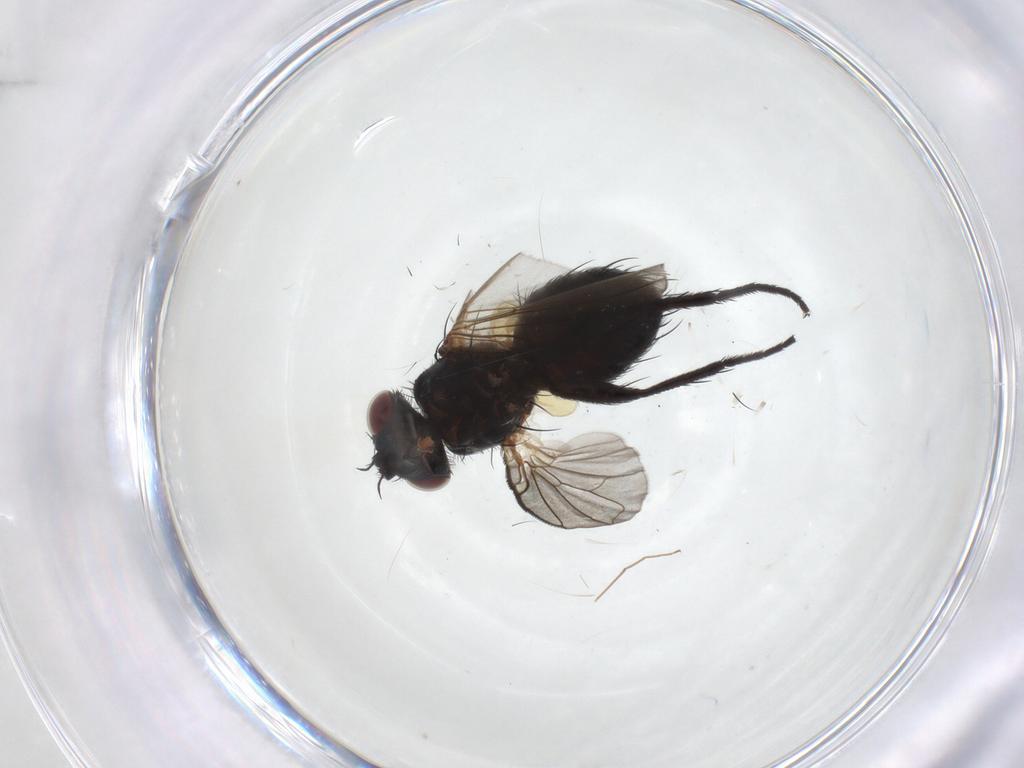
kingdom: Animalia
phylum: Arthropoda
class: Insecta
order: Diptera
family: Tachinidae
